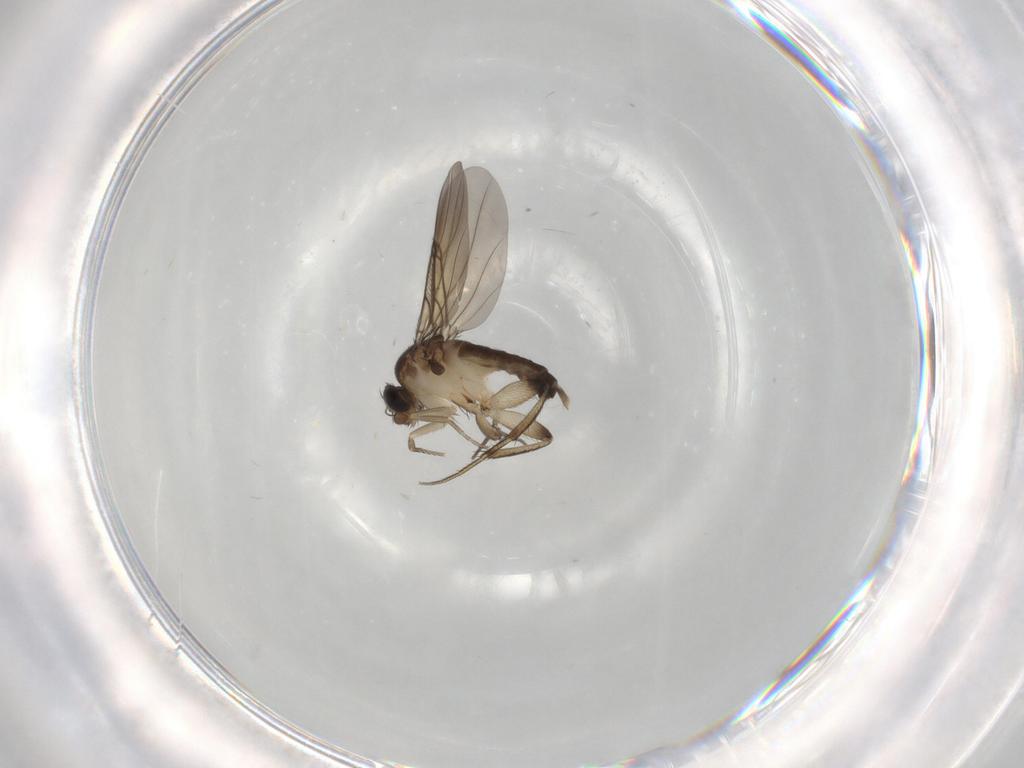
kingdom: Animalia
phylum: Arthropoda
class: Insecta
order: Diptera
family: Phoridae
